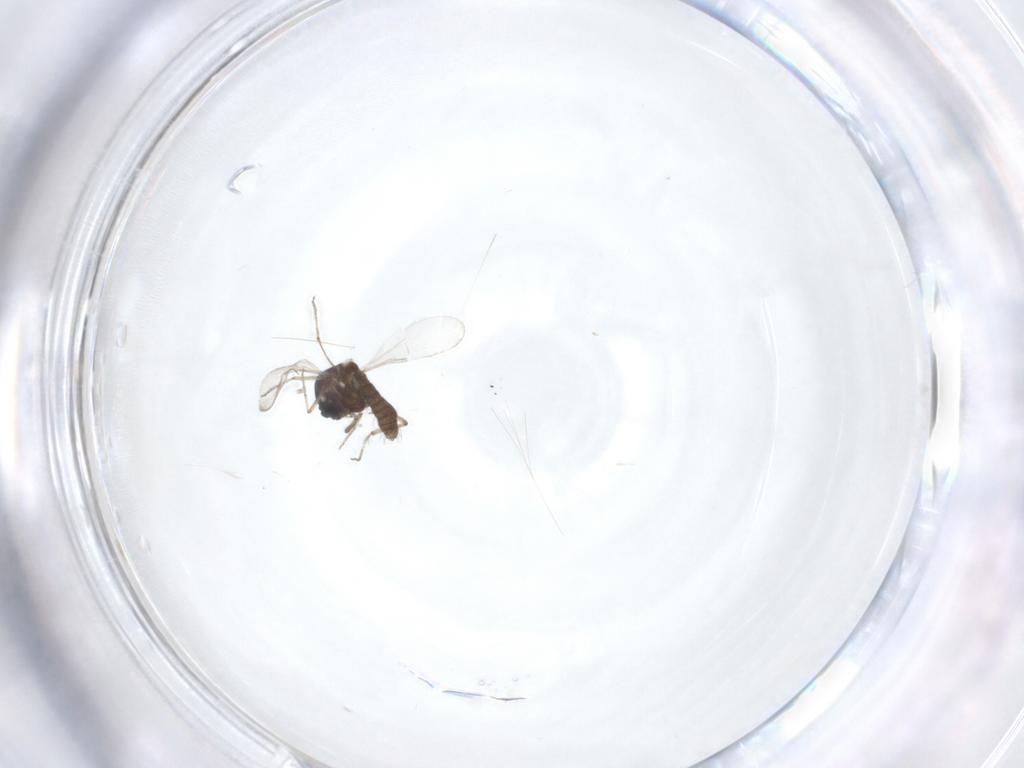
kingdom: Animalia
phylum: Arthropoda
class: Insecta
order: Diptera
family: Ceratopogonidae
